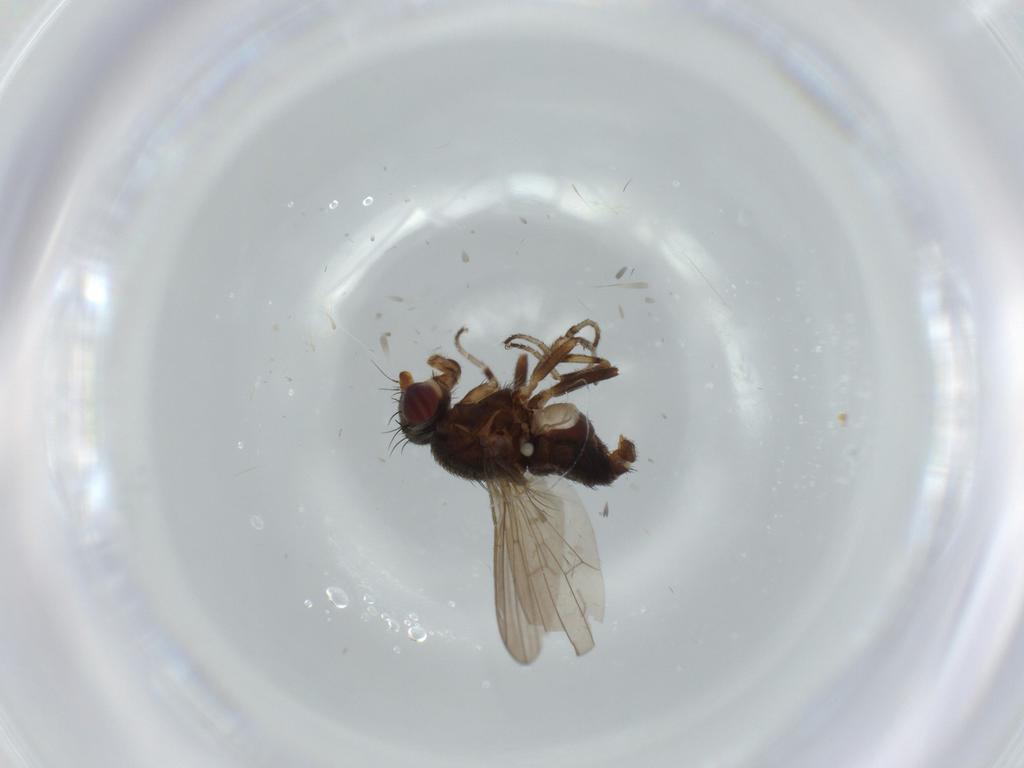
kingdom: Animalia
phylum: Arthropoda
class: Insecta
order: Diptera
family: Heleomyzidae
